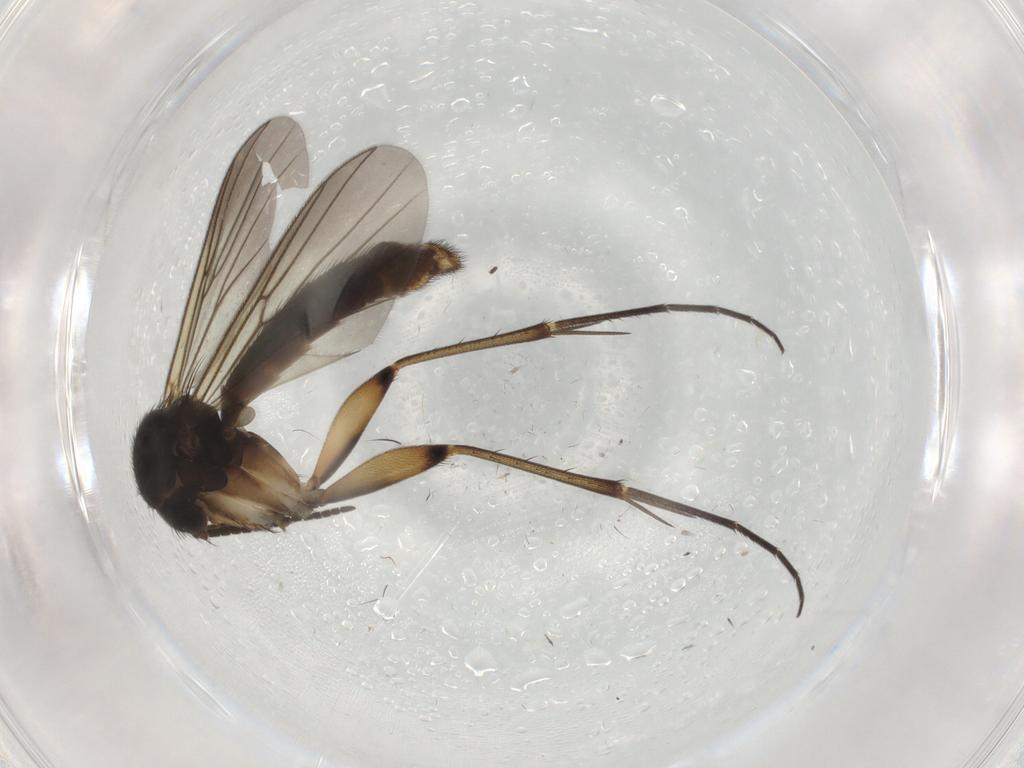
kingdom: Animalia
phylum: Arthropoda
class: Insecta
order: Diptera
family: Mycetophilidae
